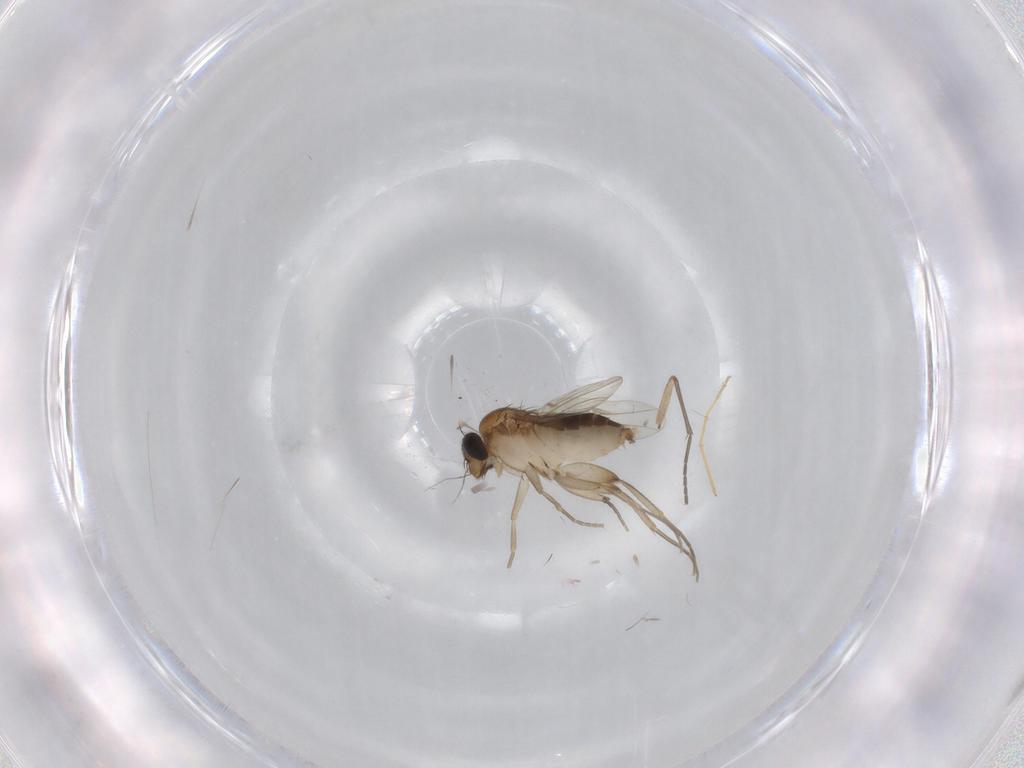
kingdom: Animalia
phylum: Arthropoda
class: Insecta
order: Diptera
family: Phoridae
